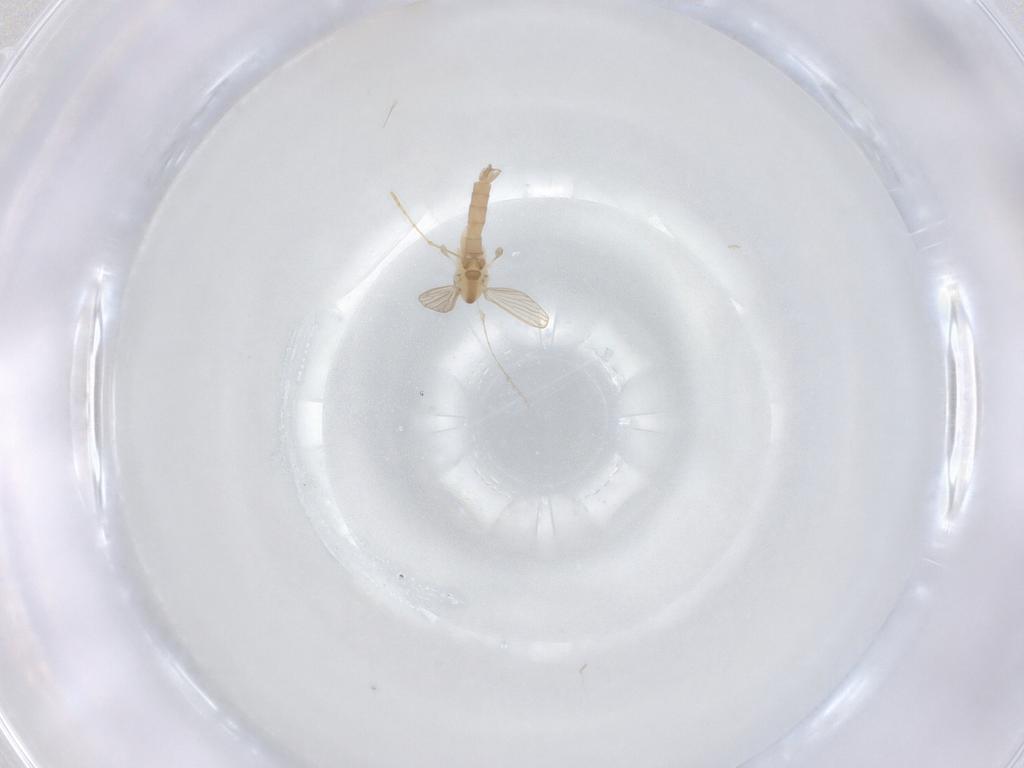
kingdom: Animalia
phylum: Arthropoda
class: Insecta
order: Diptera
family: Psychodidae
